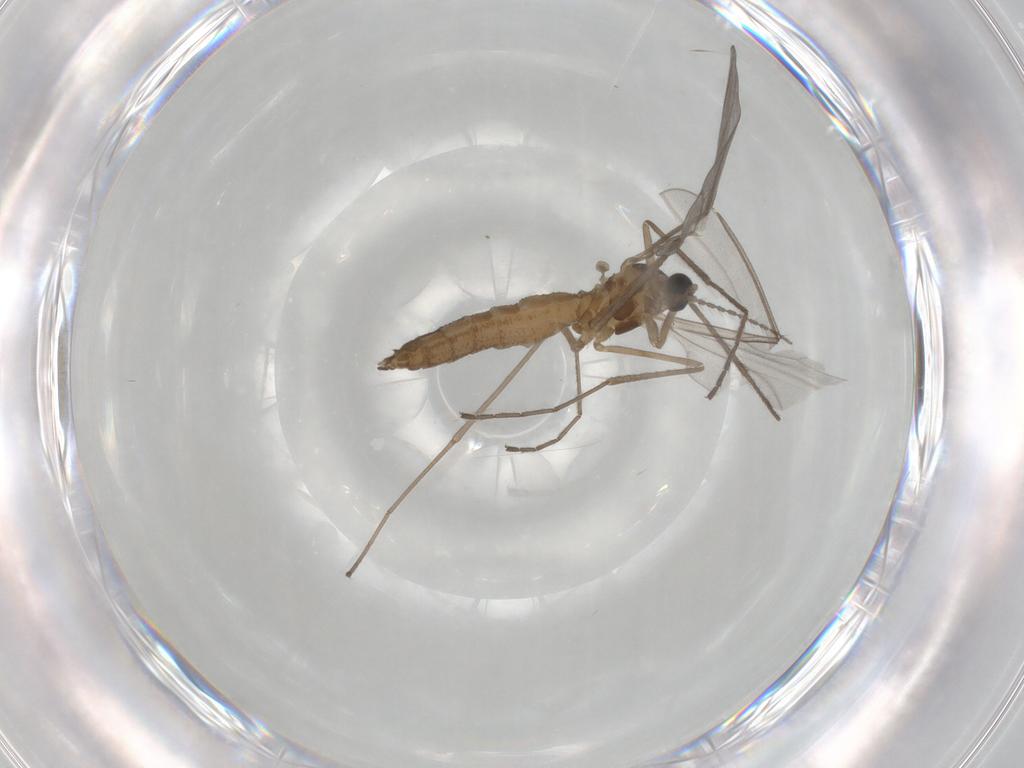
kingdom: Animalia
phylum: Arthropoda
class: Insecta
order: Diptera
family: Cecidomyiidae
